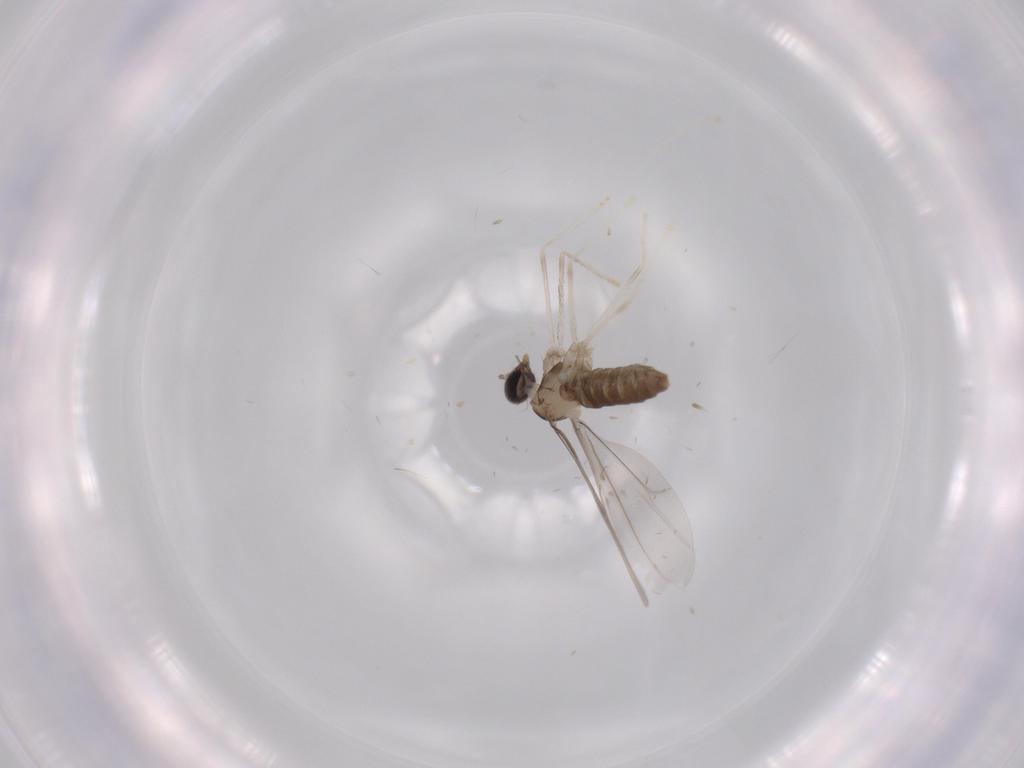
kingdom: Animalia
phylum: Arthropoda
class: Insecta
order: Diptera
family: Cecidomyiidae
